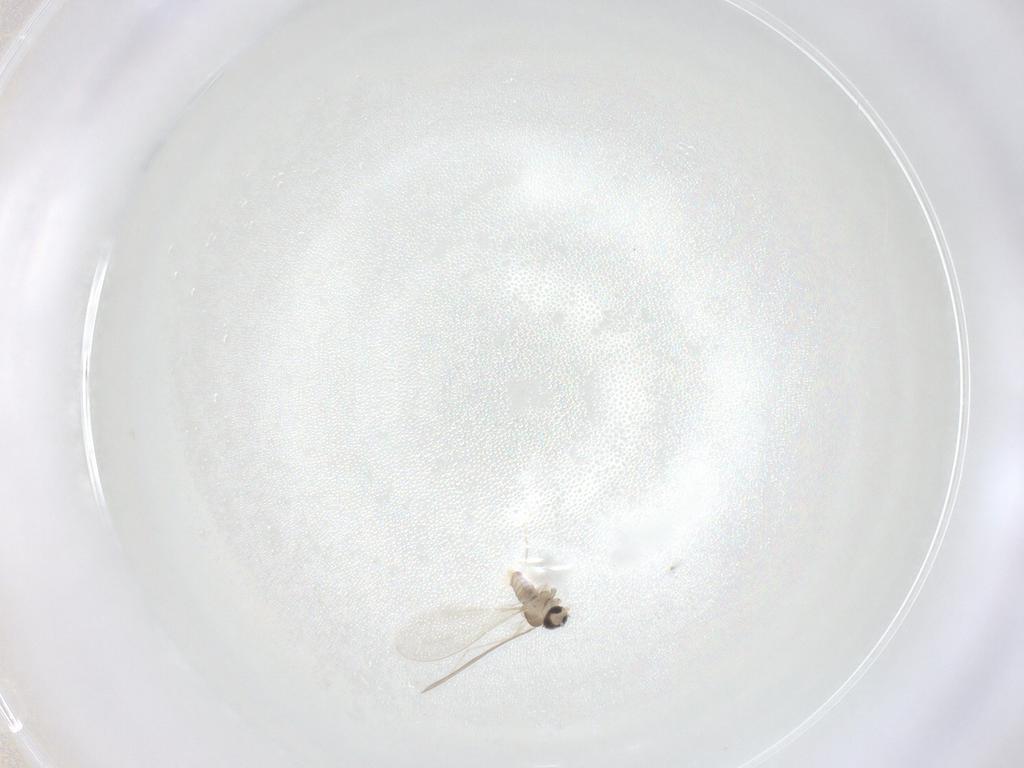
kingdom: Animalia
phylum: Arthropoda
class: Insecta
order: Diptera
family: Cecidomyiidae
